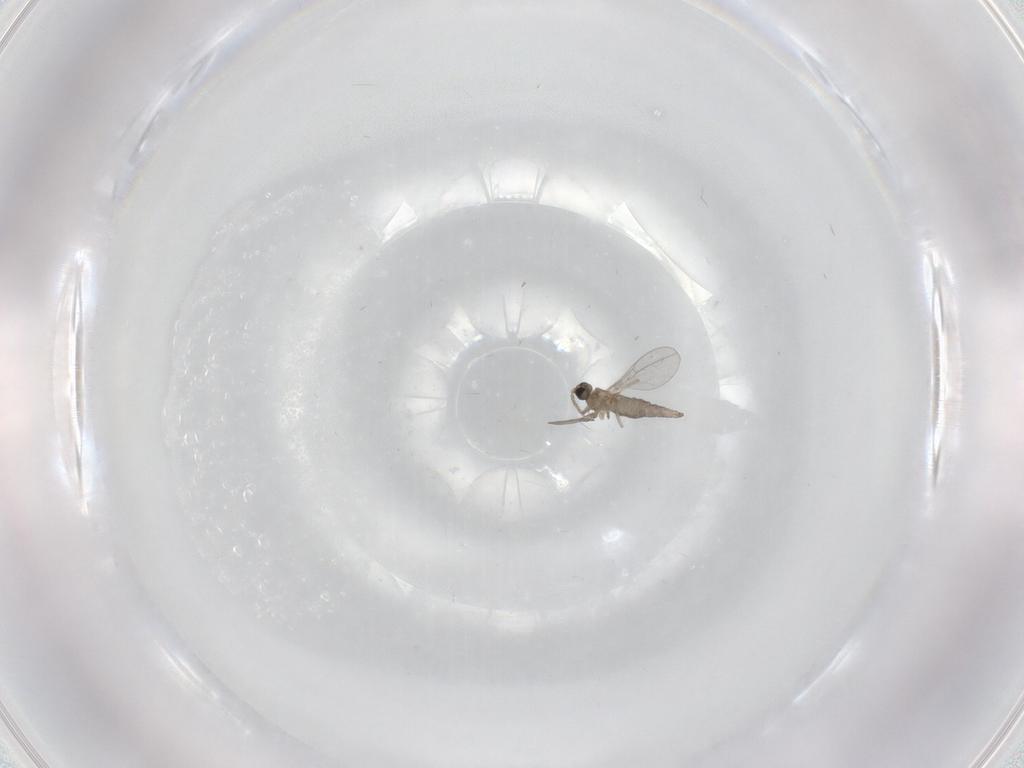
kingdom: Animalia
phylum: Arthropoda
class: Insecta
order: Diptera
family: Cecidomyiidae
